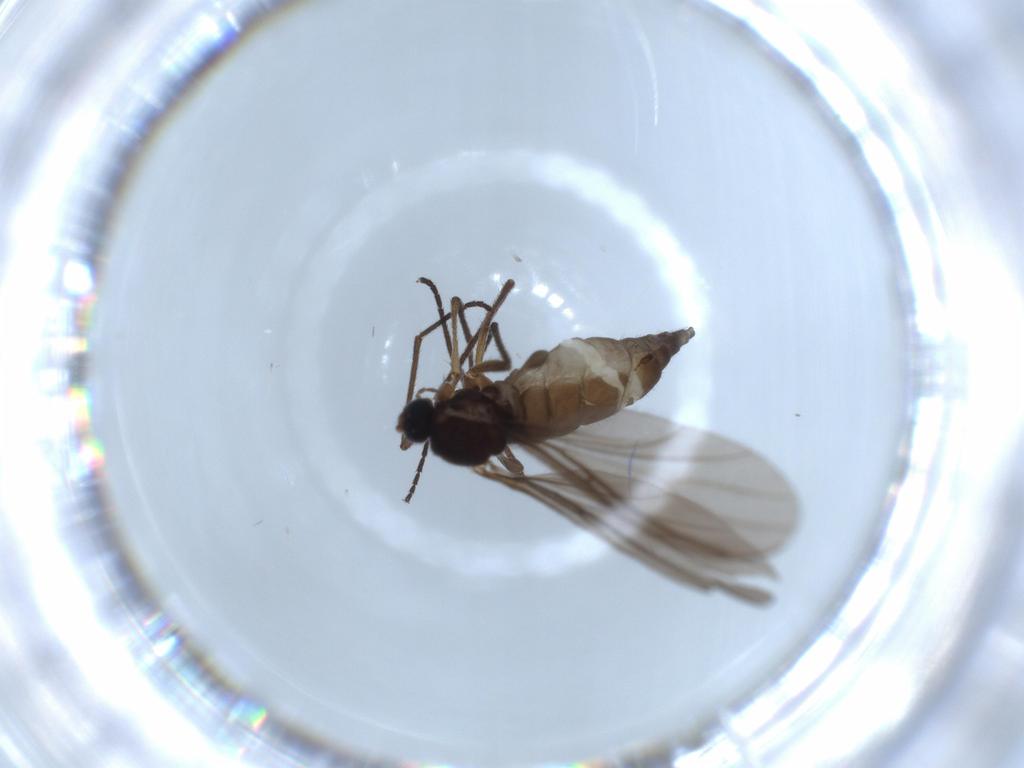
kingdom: Animalia
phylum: Arthropoda
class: Insecta
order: Diptera
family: Sciaridae
